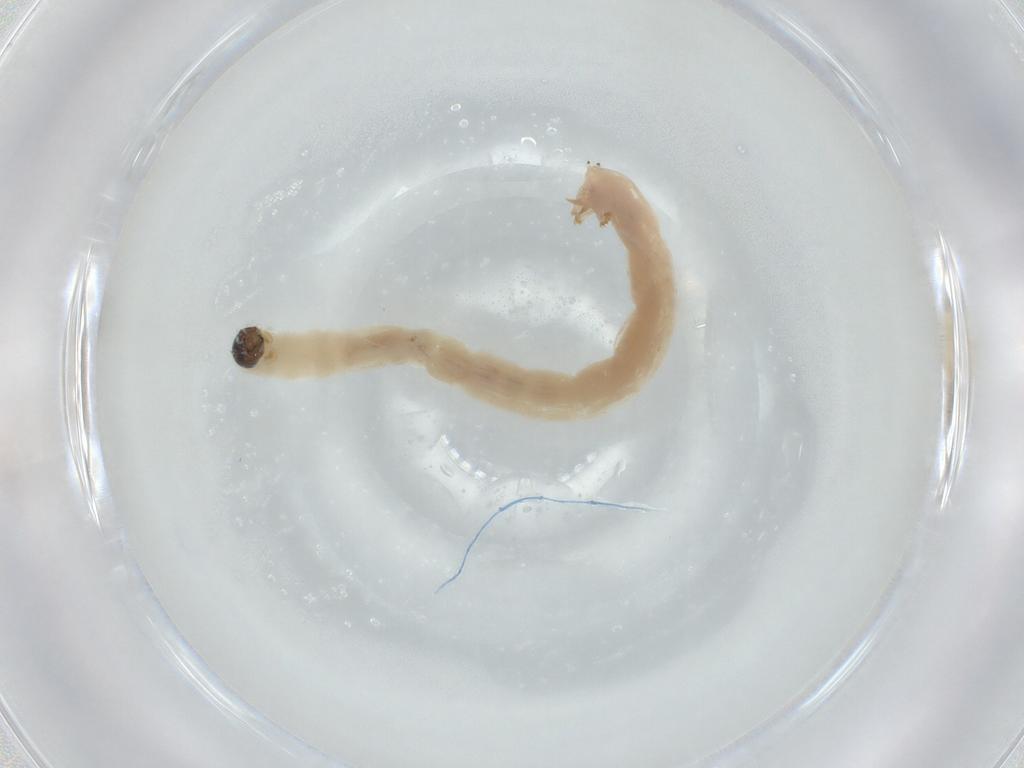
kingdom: Animalia
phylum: Arthropoda
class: Insecta
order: Diptera
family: Chironomidae
